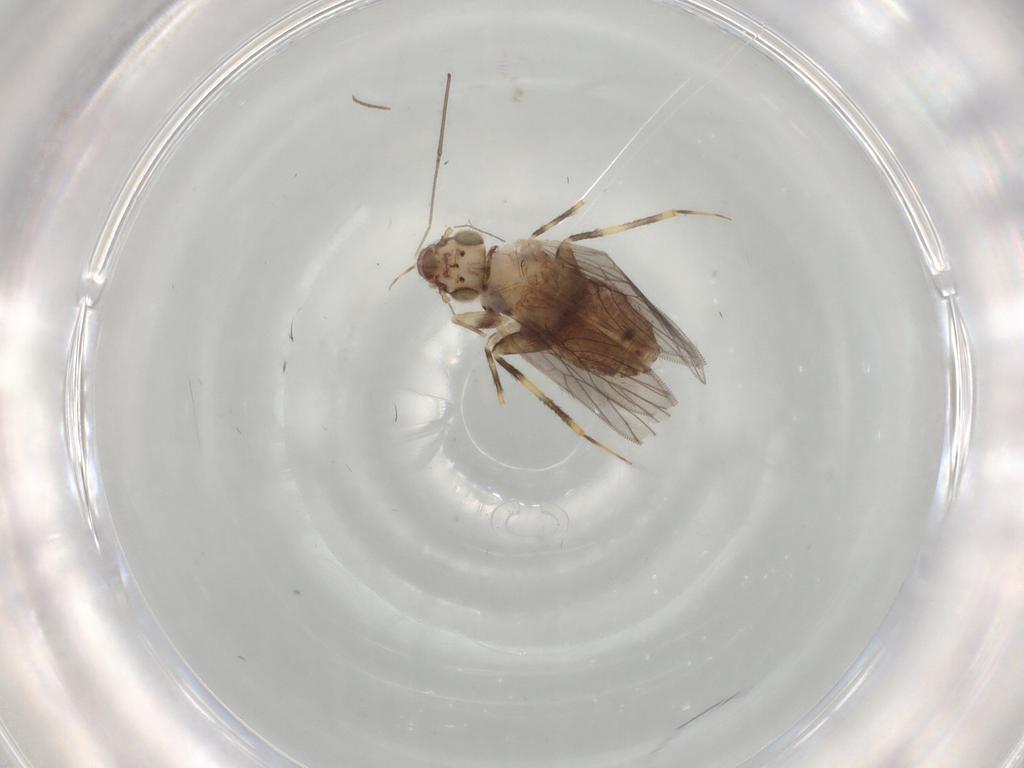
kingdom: Animalia
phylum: Arthropoda
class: Insecta
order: Psocodea
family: Lepidopsocidae
